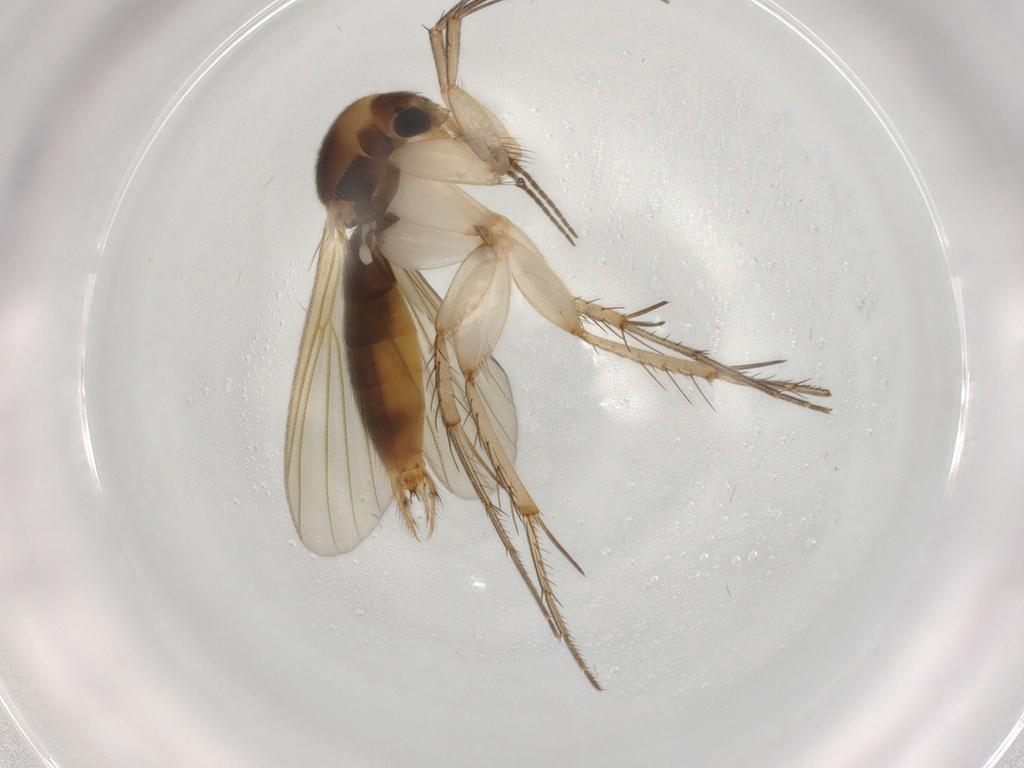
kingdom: Animalia
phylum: Arthropoda
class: Insecta
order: Diptera
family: Psychodidae
